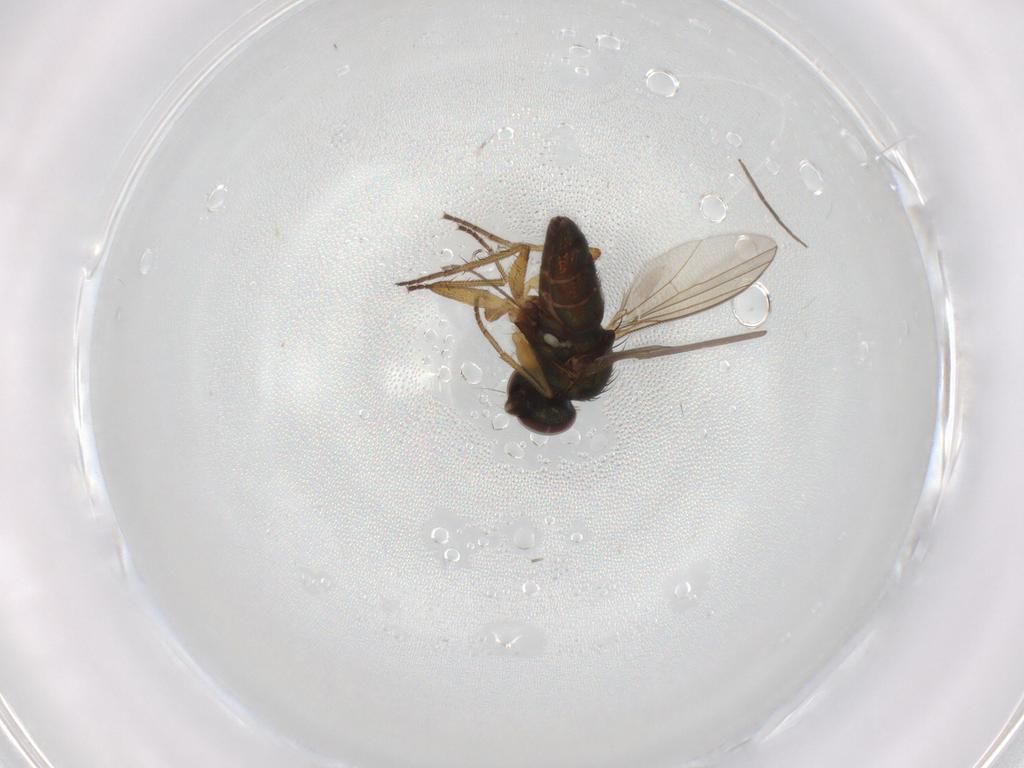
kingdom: Animalia
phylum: Arthropoda
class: Insecta
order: Diptera
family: Chironomidae
